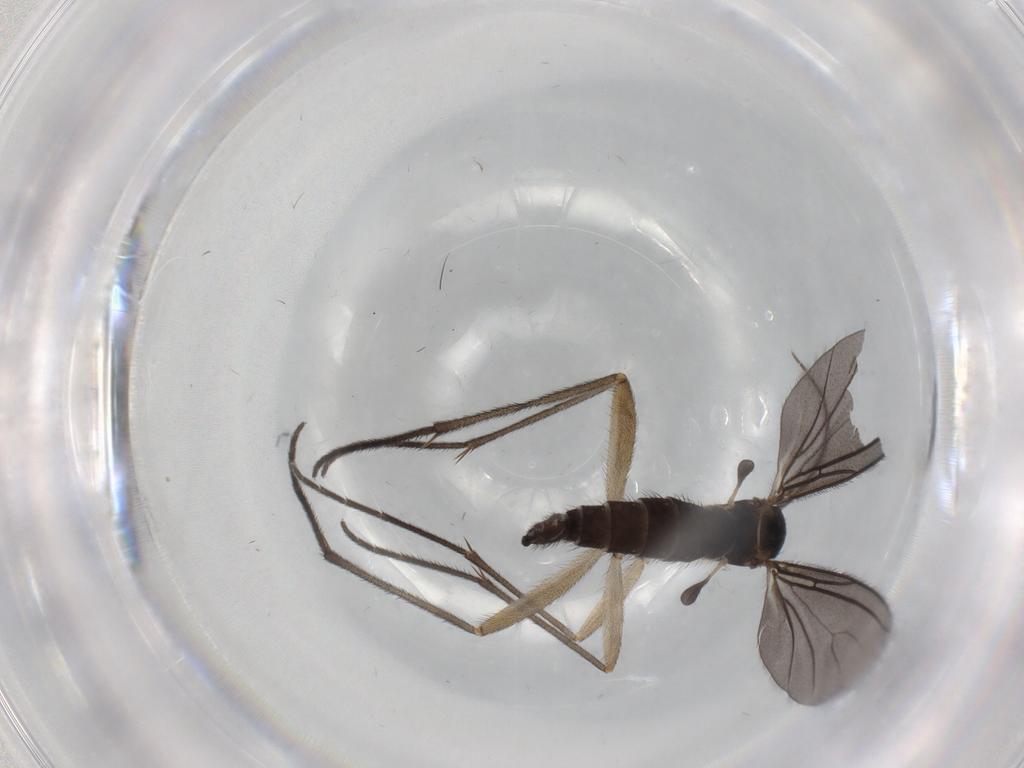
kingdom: Animalia
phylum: Arthropoda
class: Insecta
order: Diptera
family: Sciaridae
